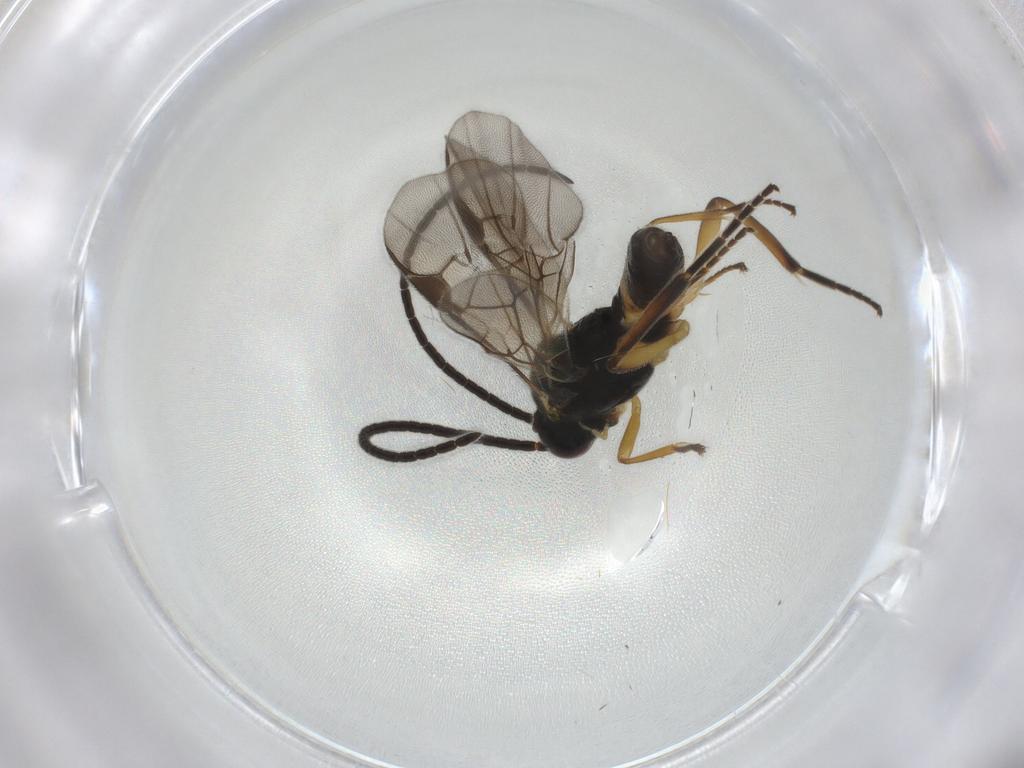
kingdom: Animalia
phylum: Arthropoda
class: Insecta
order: Hymenoptera
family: Braconidae
